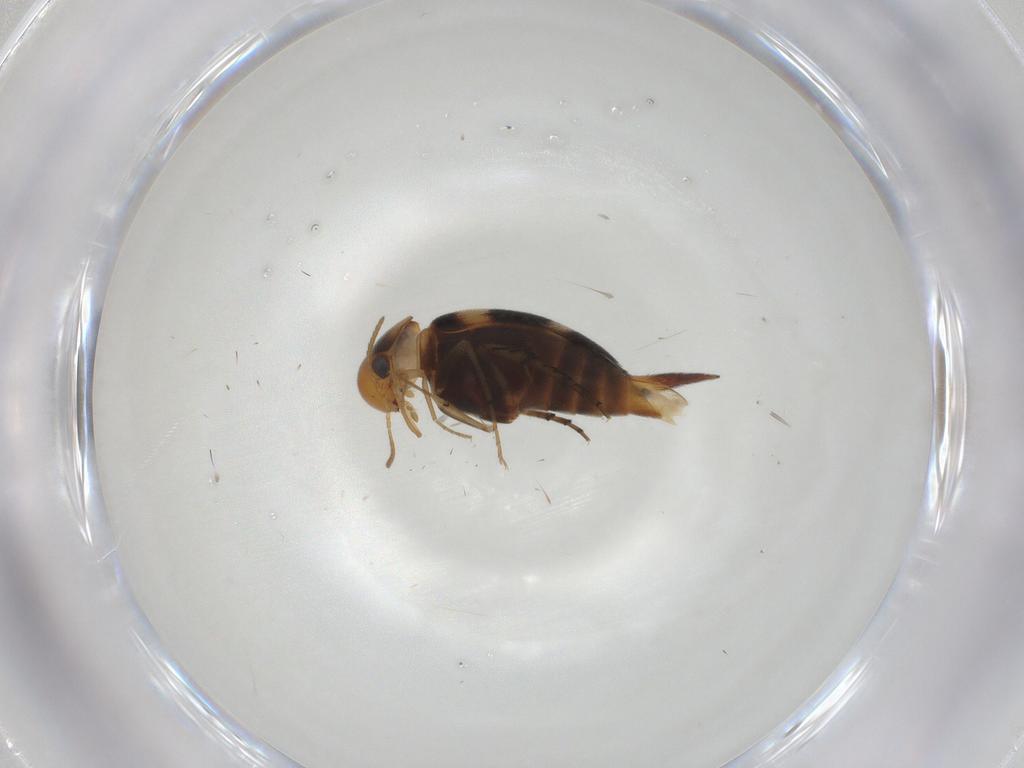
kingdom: Animalia
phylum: Arthropoda
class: Insecta
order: Coleoptera
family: Mordellidae
